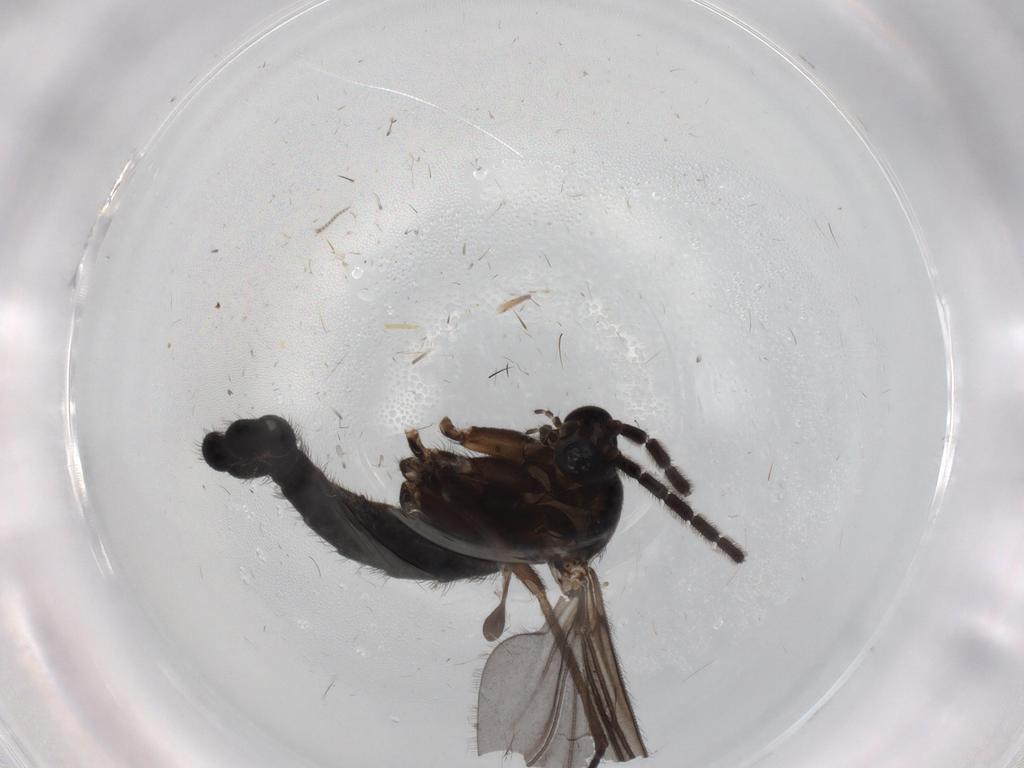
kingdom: Animalia
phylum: Arthropoda
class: Insecta
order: Diptera
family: Sciaridae
